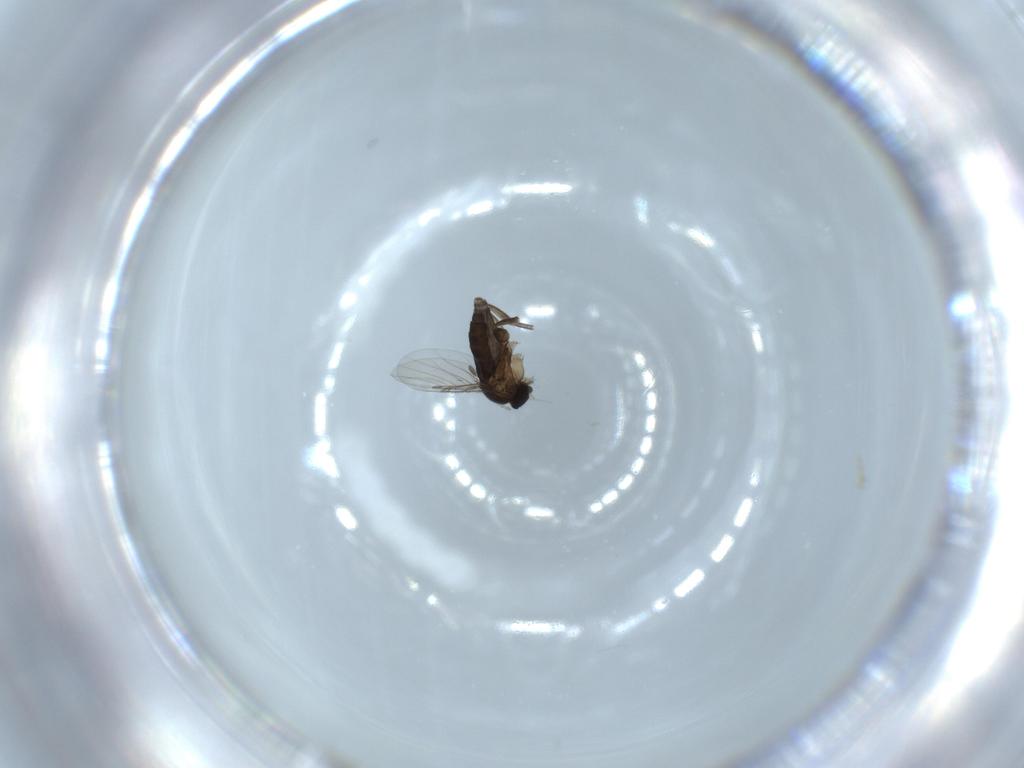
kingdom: Animalia
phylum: Arthropoda
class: Insecta
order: Diptera
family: Phoridae
